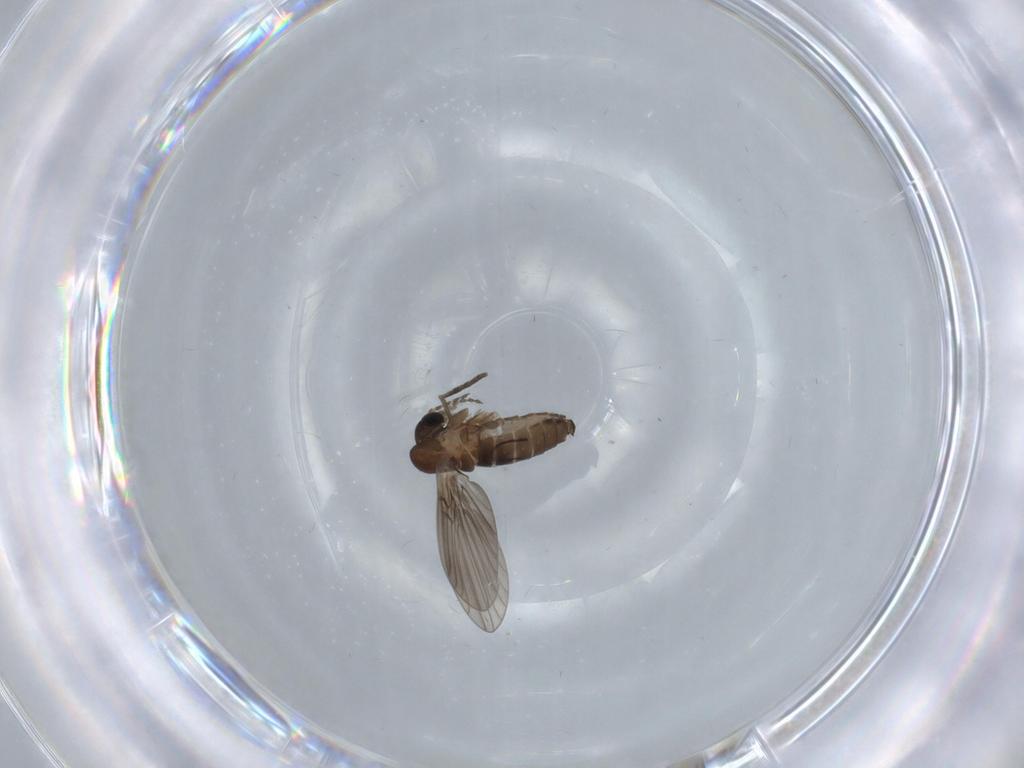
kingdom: Animalia
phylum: Arthropoda
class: Insecta
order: Diptera
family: Psychodidae
